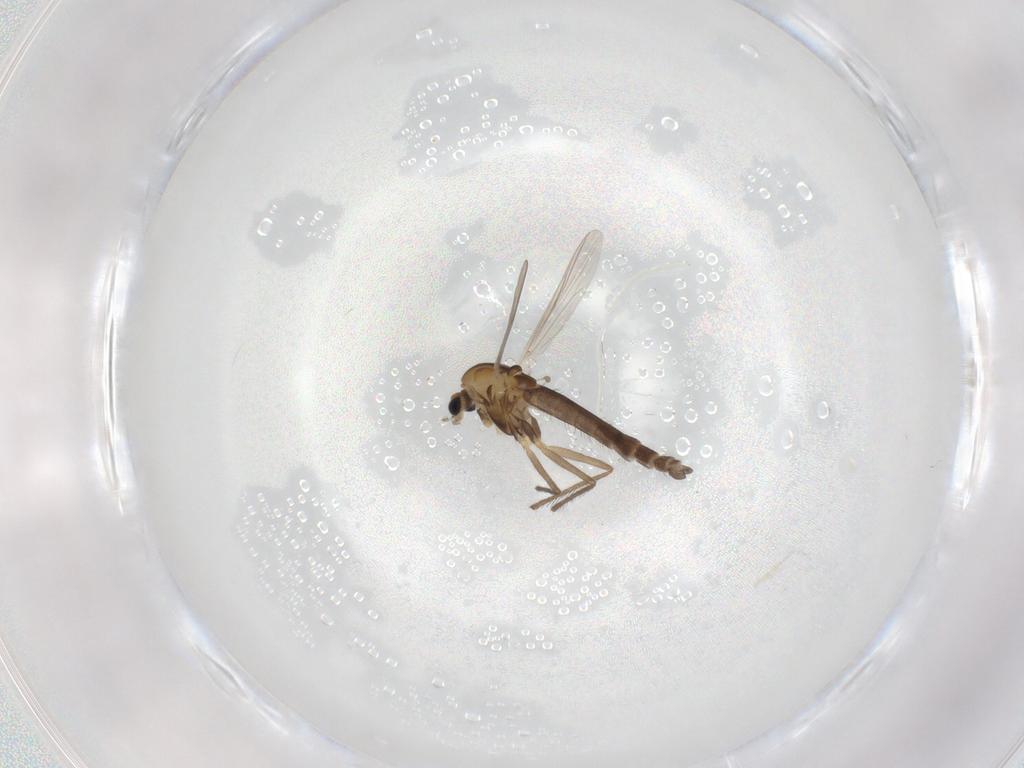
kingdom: Animalia
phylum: Arthropoda
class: Insecta
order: Diptera
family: Chironomidae
